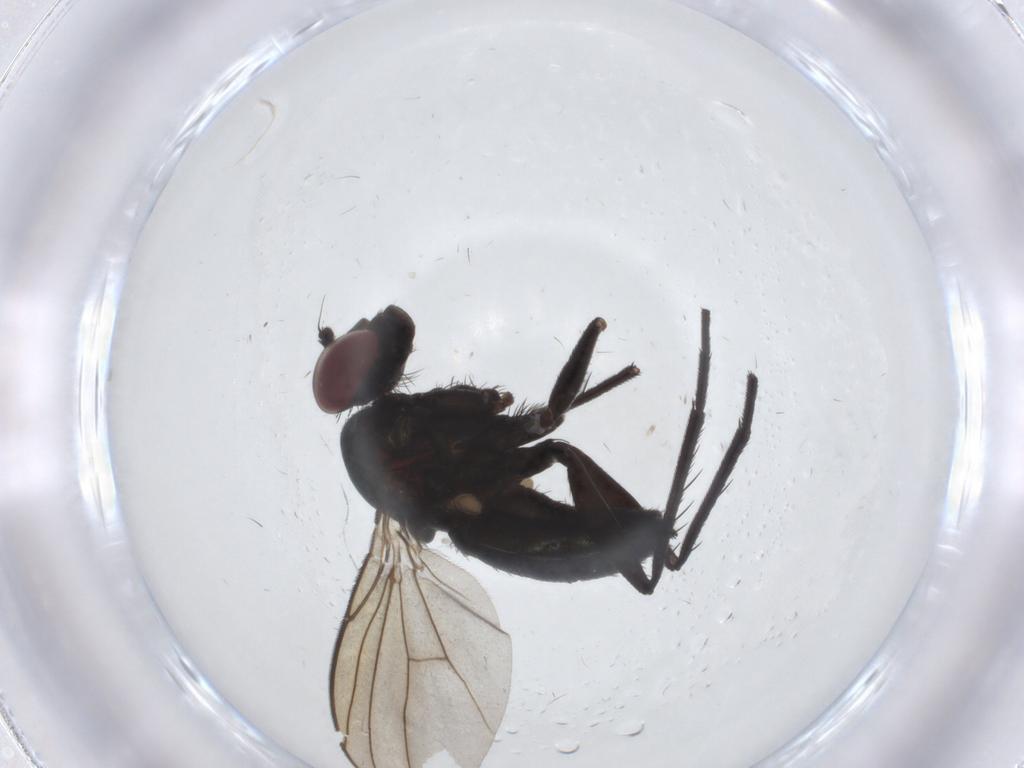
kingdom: Animalia
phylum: Arthropoda
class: Insecta
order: Diptera
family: Dolichopodidae
